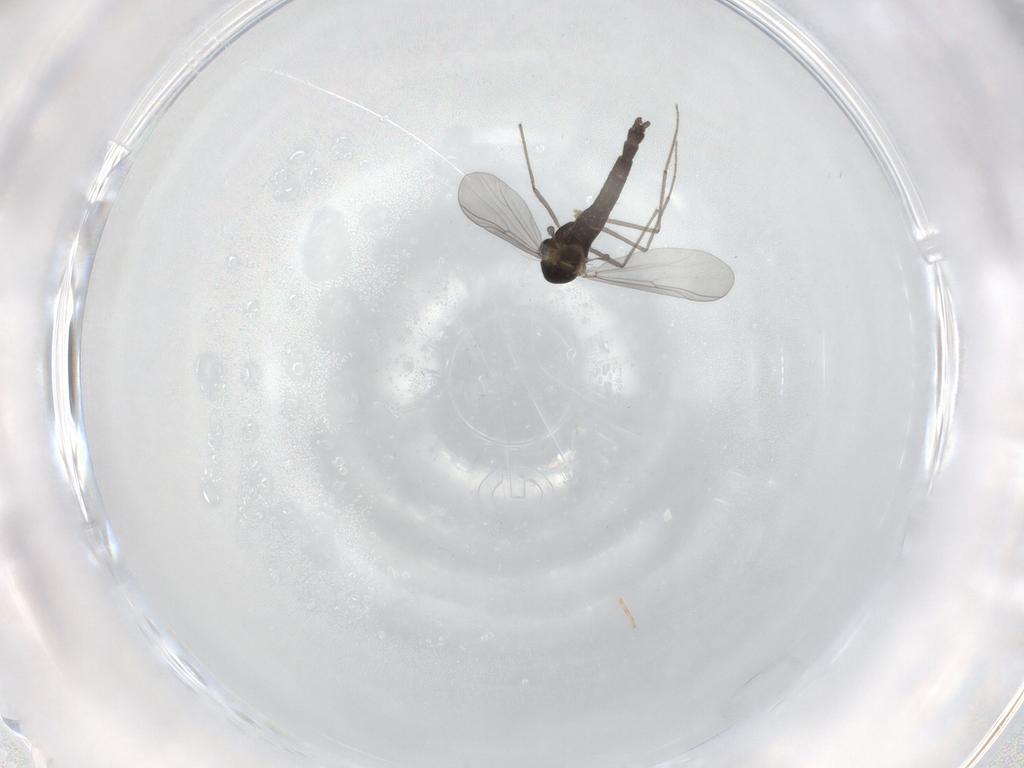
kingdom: Animalia
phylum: Arthropoda
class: Insecta
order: Diptera
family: Chironomidae
